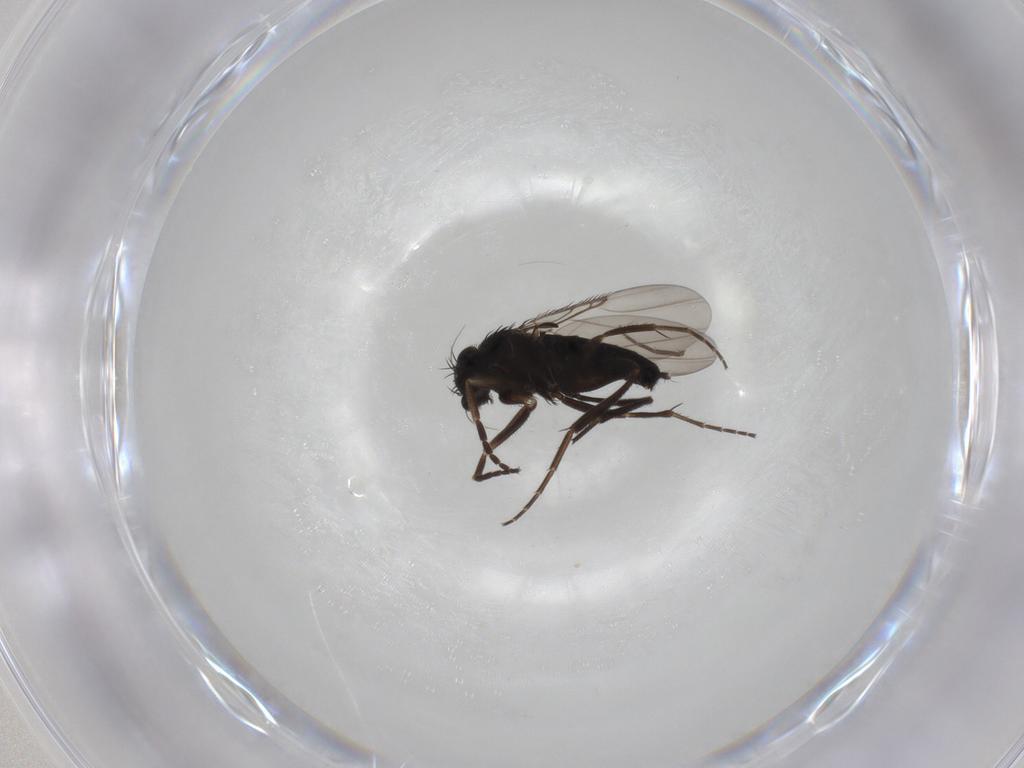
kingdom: Animalia
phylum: Arthropoda
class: Insecta
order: Diptera
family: Phoridae
